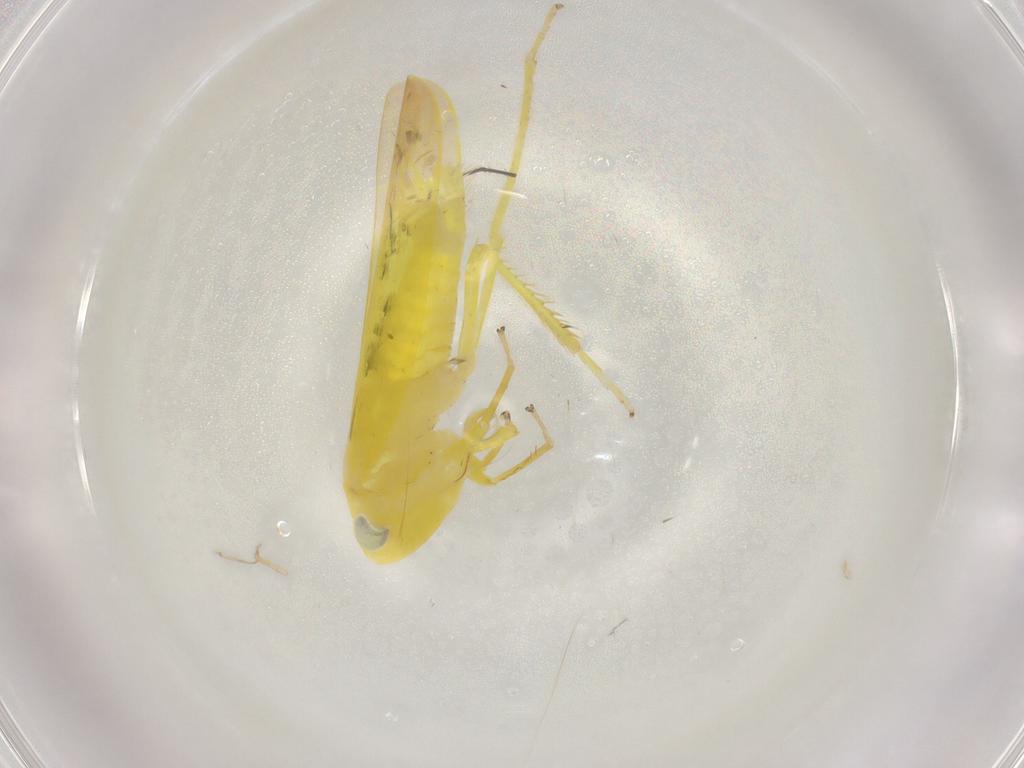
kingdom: Animalia
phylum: Arthropoda
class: Insecta
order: Hemiptera
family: Cicadellidae
